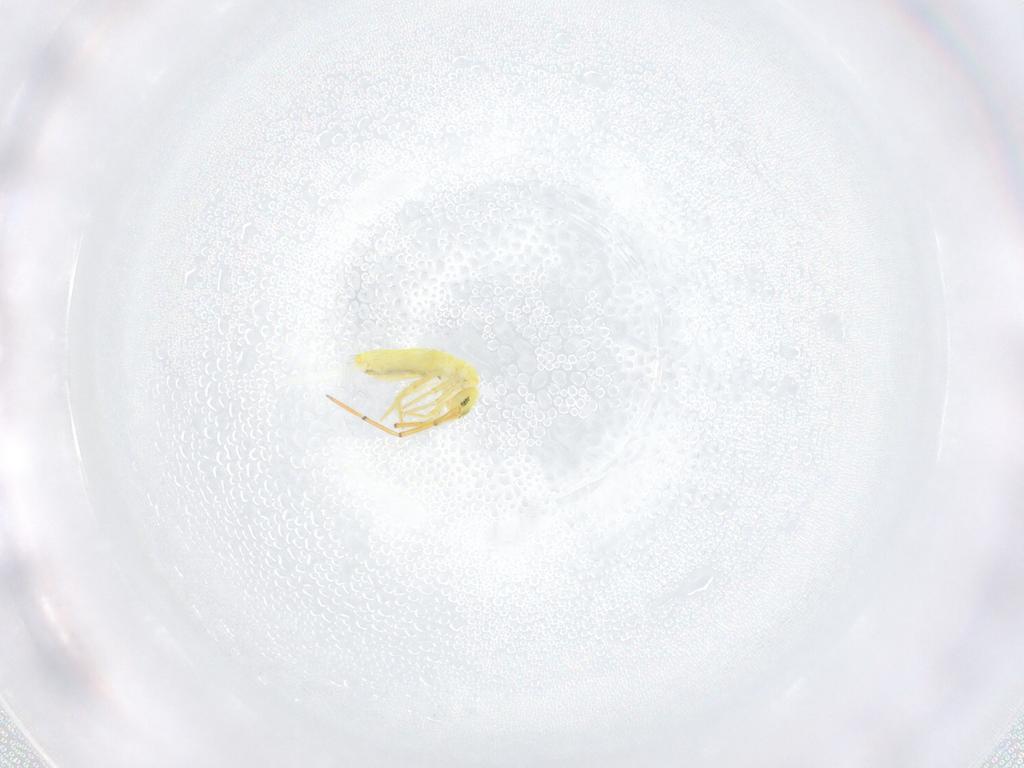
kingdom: Animalia
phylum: Arthropoda
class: Collembola
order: Entomobryomorpha
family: Paronellidae
